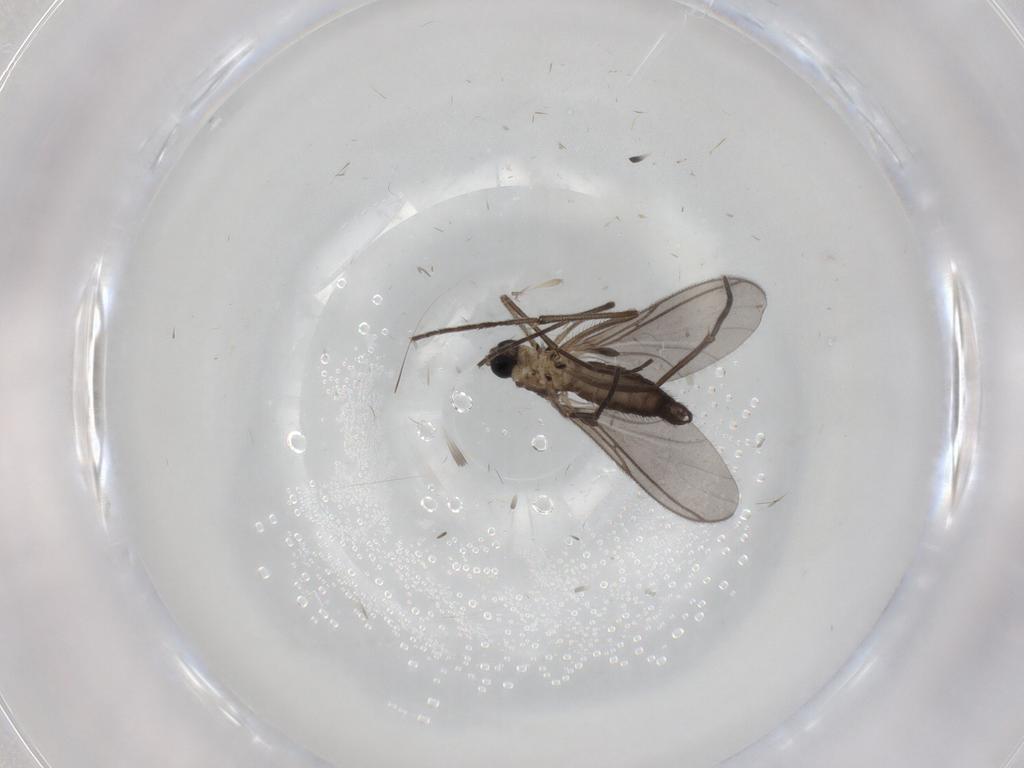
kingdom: Animalia
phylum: Arthropoda
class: Insecta
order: Diptera
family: Sciaridae
